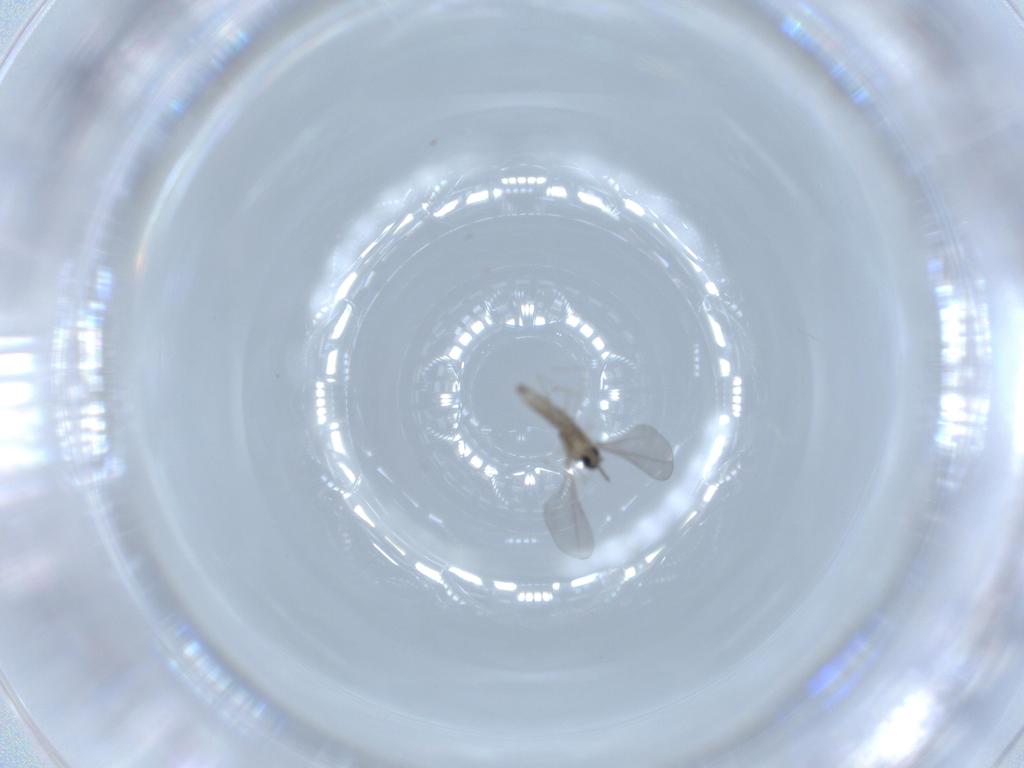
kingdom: Animalia
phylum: Arthropoda
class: Insecta
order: Diptera
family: Cecidomyiidae
